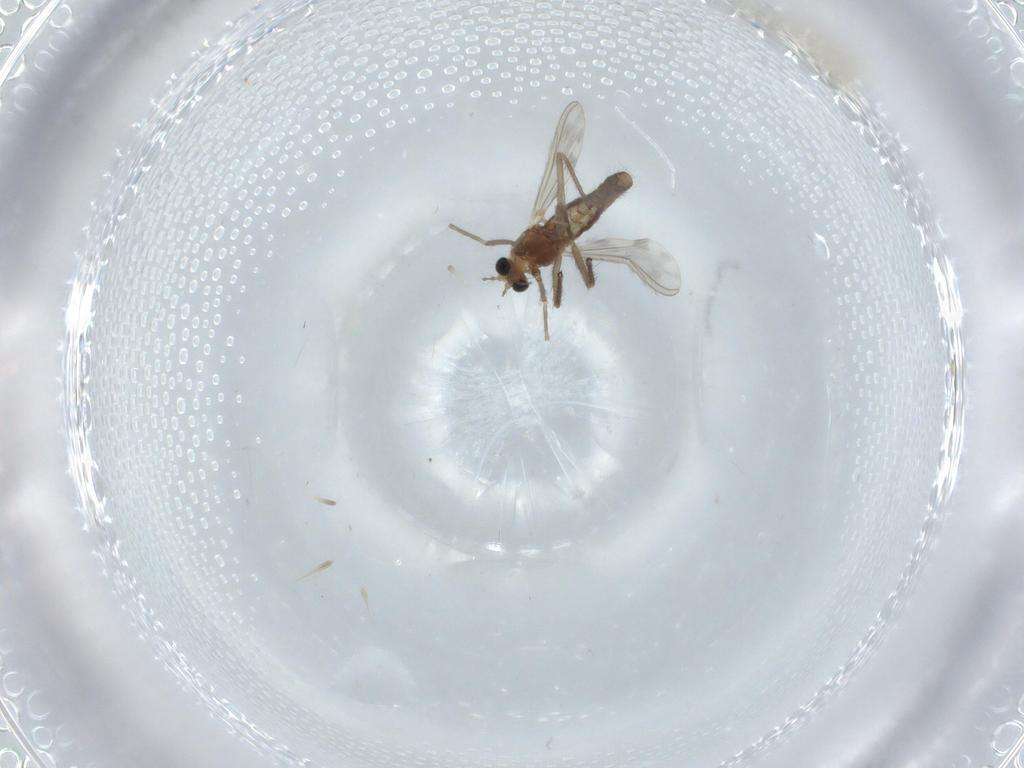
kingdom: Animalia
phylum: Arthropoda
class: Insecta
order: Diptera
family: Chironomidae
